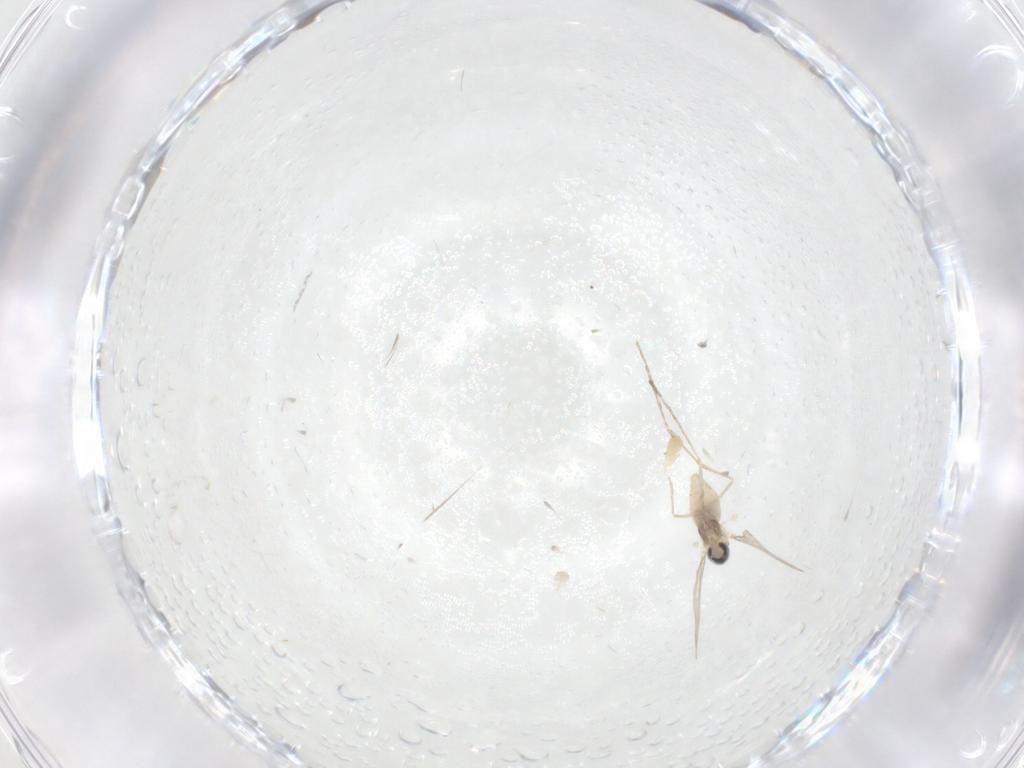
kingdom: Animalia
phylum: Arthropoda
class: Insecta
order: Diptera
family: Cecidomyiidae
